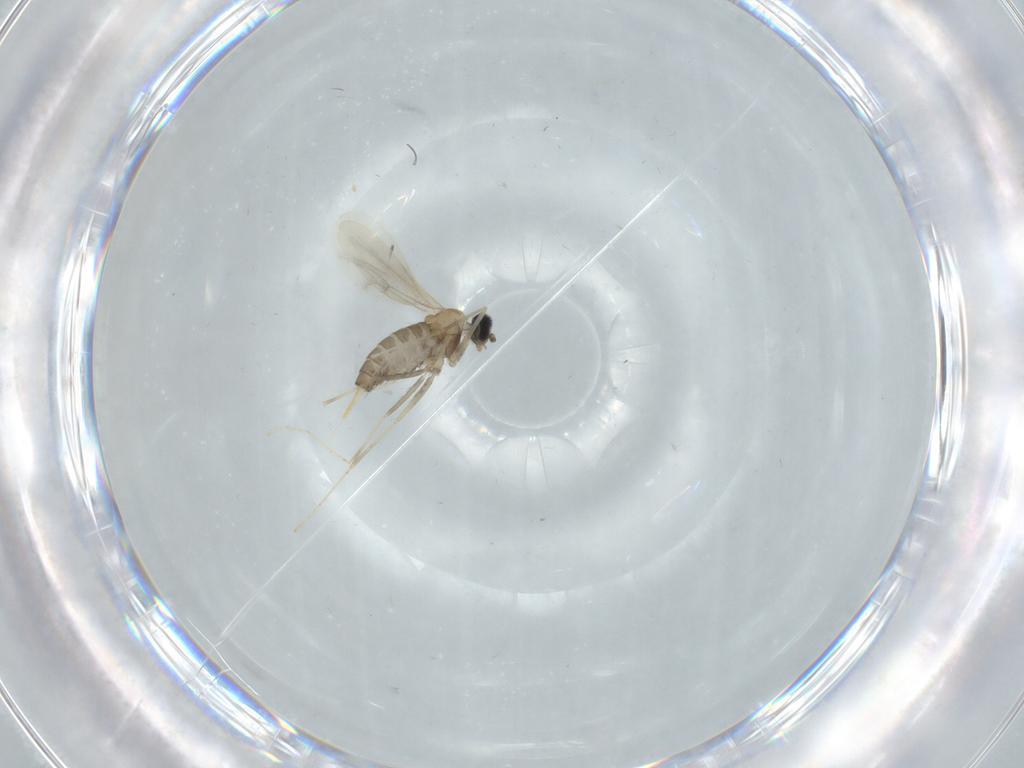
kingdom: Animalia
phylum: Arthropoda
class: Insecta
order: Diptera
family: Cecidomyiidae
